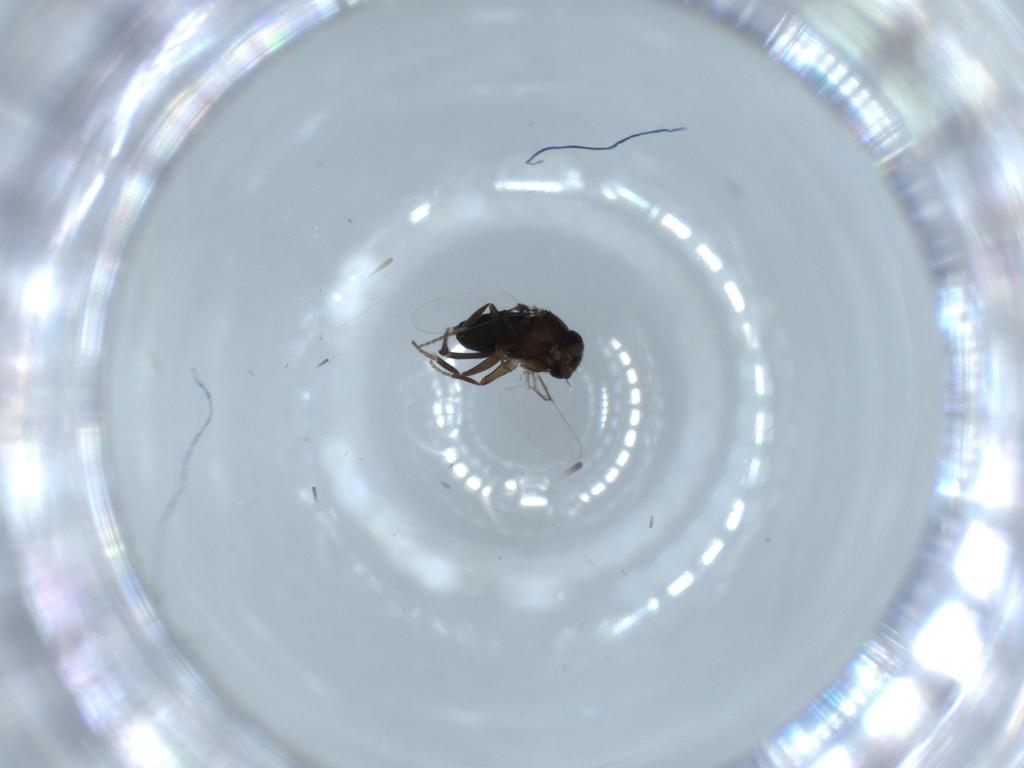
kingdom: Animalia
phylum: Arthropoda
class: Insecta
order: Diptera
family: Phoridae
